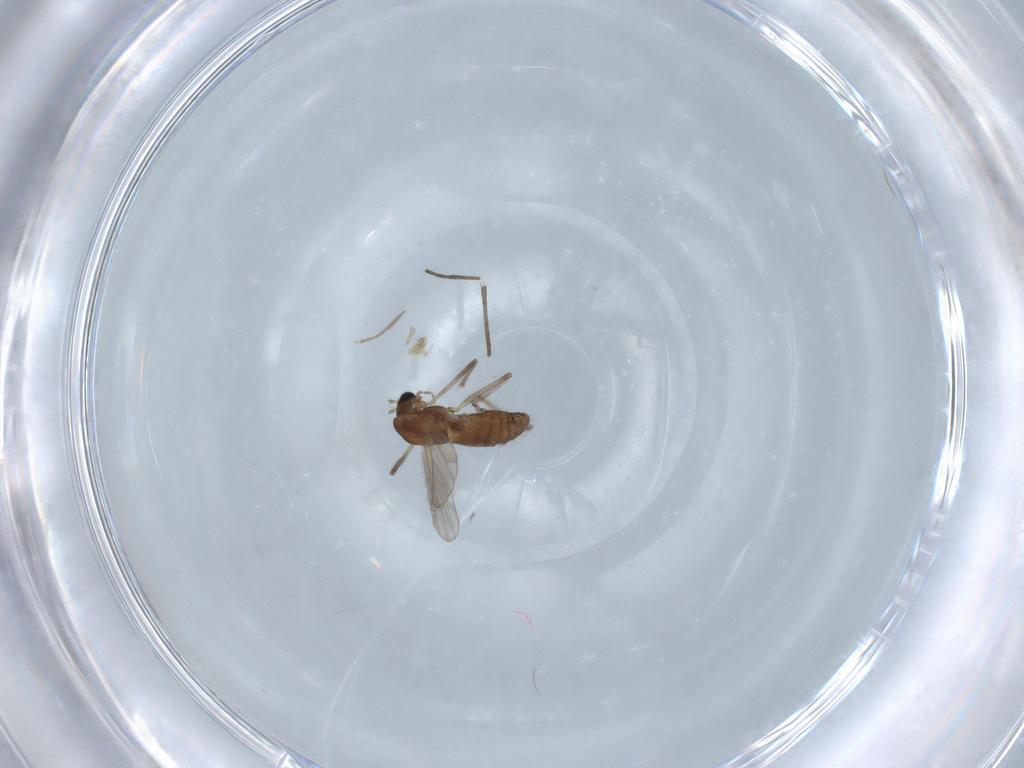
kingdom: Animalia
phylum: Arthropoda
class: Insecta
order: Diptera
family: Chironomidae
